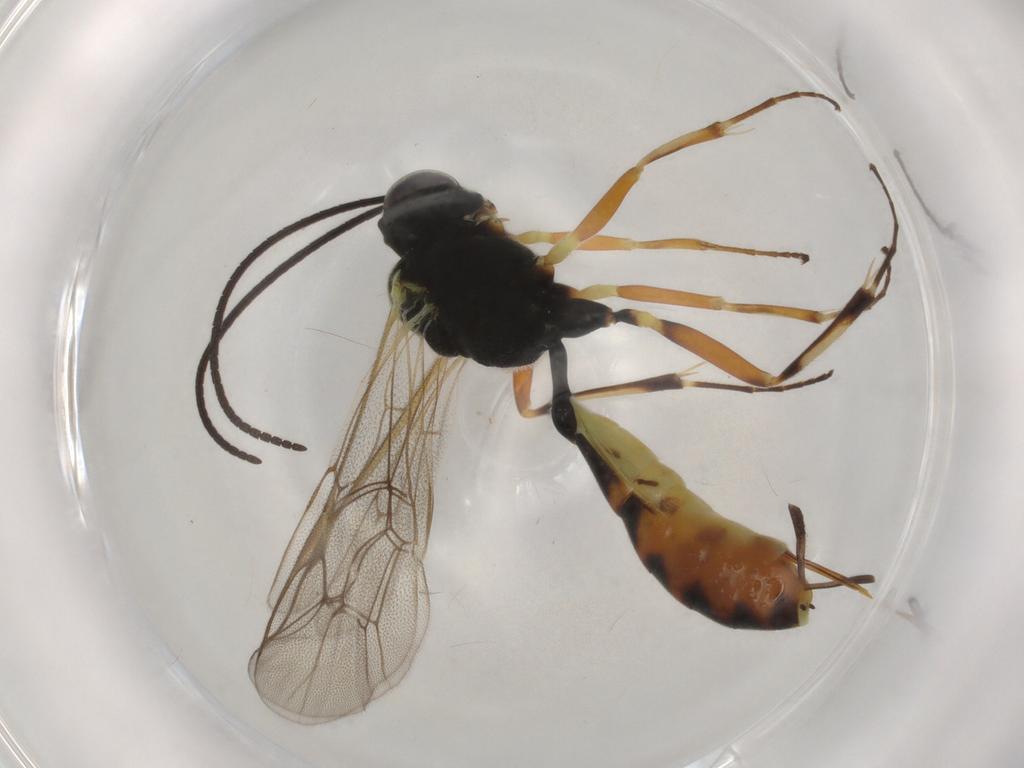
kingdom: Animalia
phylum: Arthropoda
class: Insecta
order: Hymenoptera
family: Ichneumonidae
